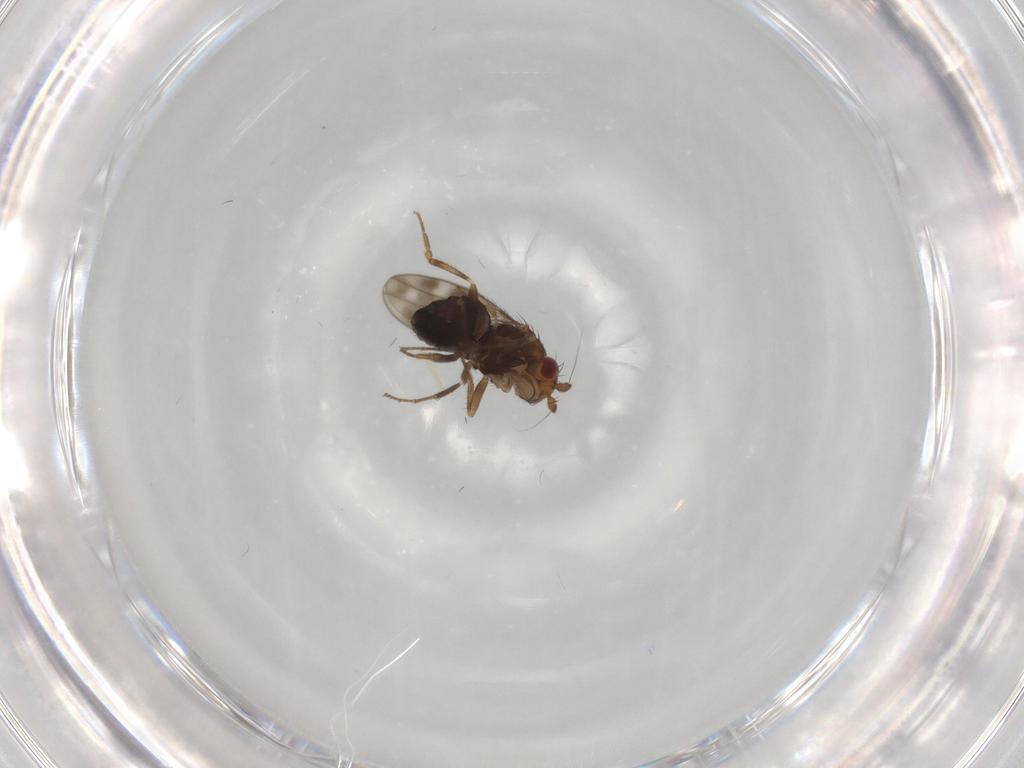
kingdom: Animalia
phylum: Arthropoda
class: Insecta
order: Diptera
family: Sphaeroceridae
